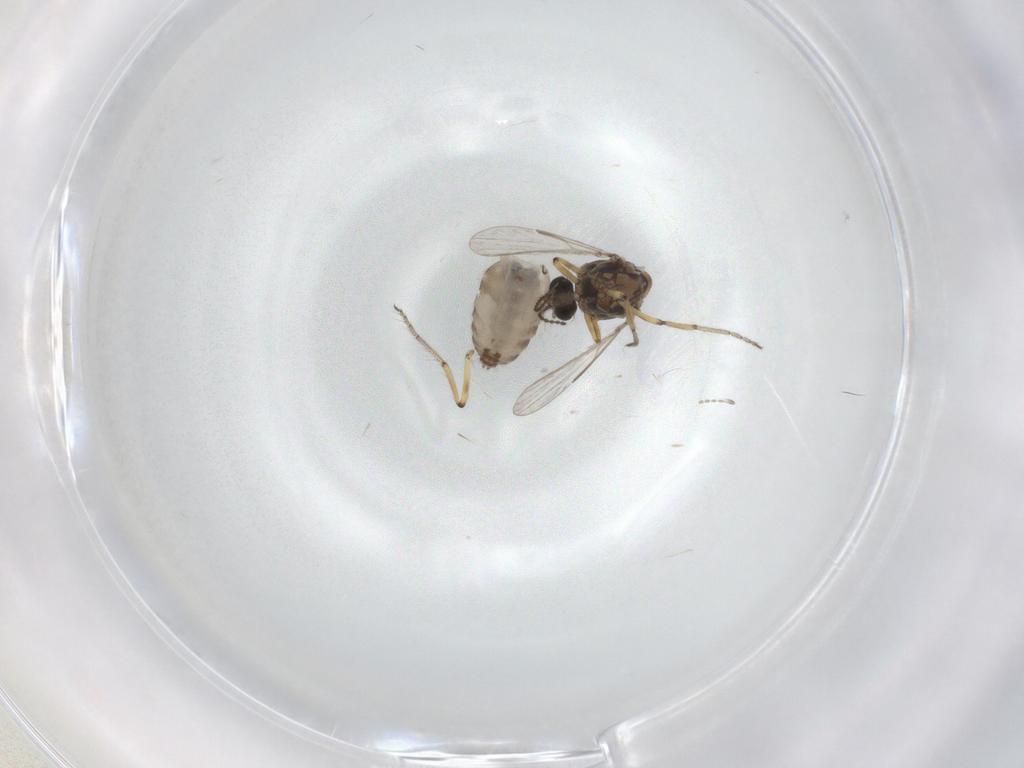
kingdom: Animalia
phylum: Arthropoda
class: Insecta
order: Diptera
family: Ceratopogonidae
